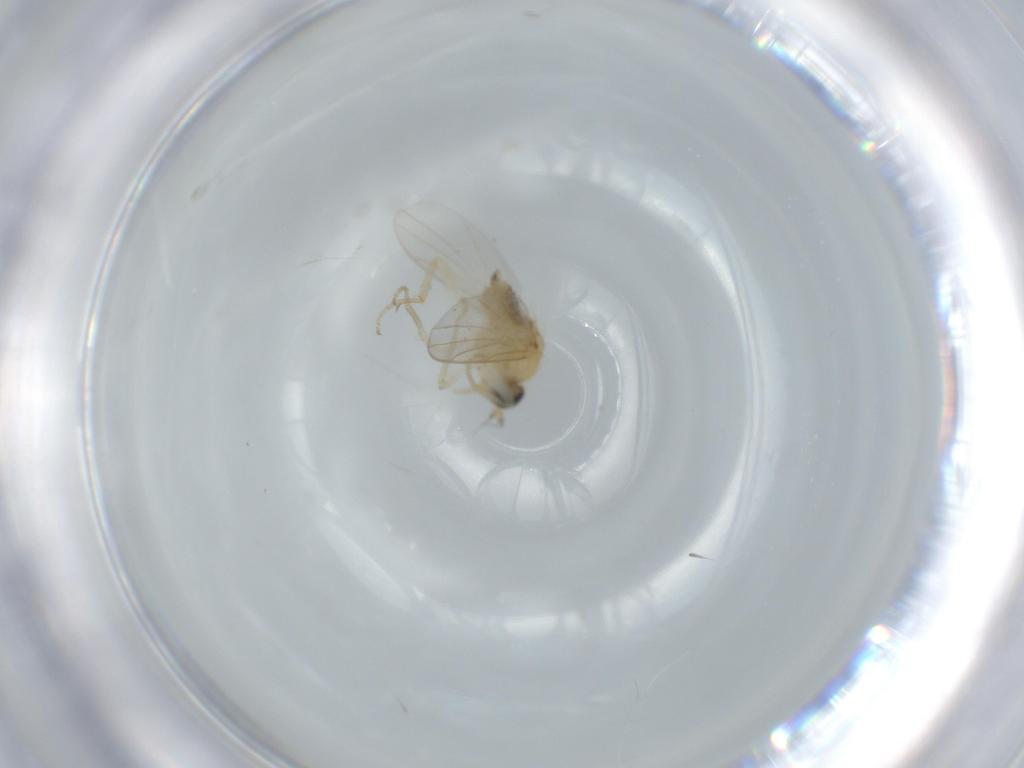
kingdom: Animalia
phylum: Arthropoda
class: Insecta
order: Diptera
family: Hybotidae
